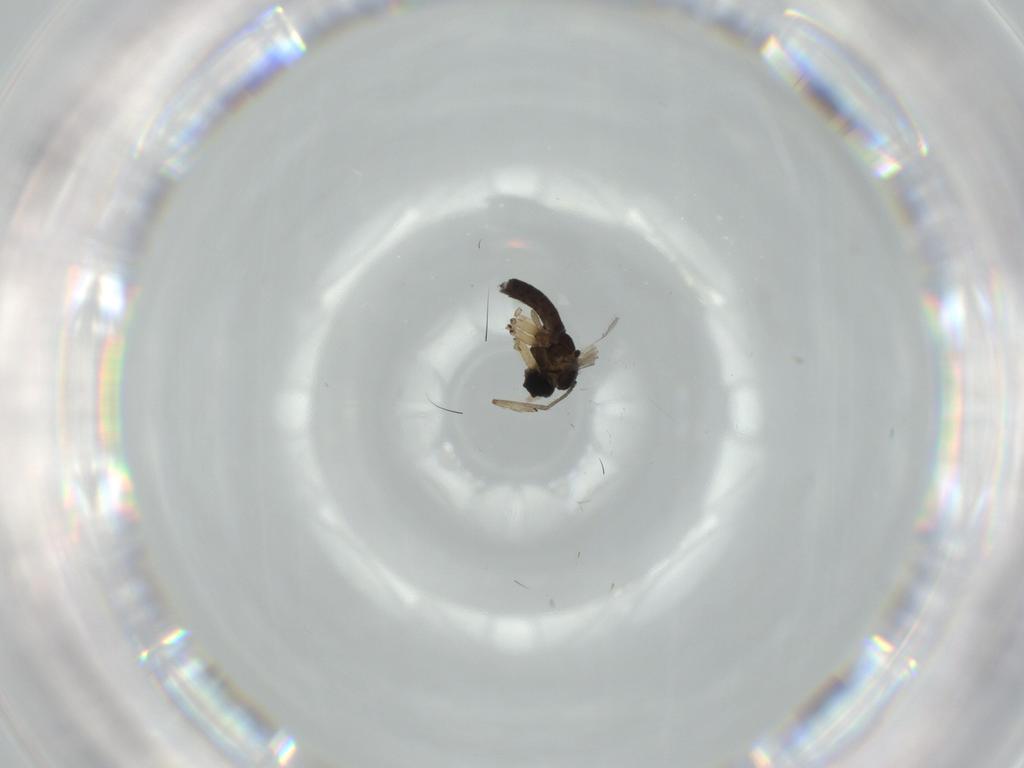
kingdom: Animalia
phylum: Arthropoda
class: Insecta
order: Diptera
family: Sciaridae
